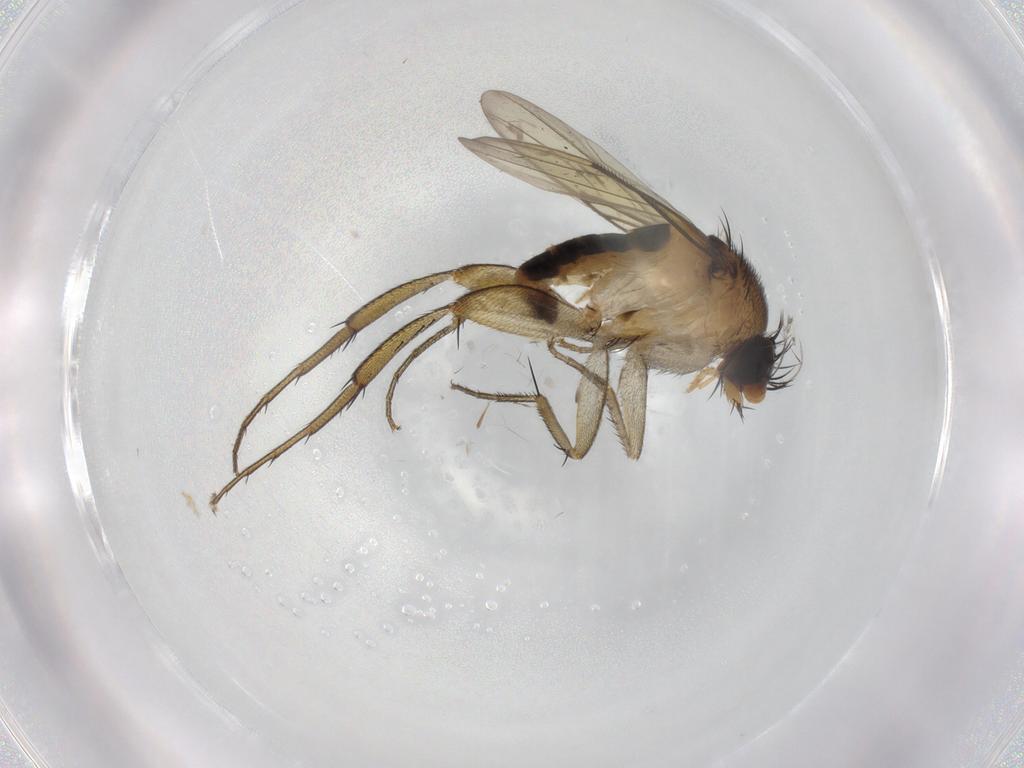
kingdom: Animalia
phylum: Arthropoda
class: Insecta
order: Diptera
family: Phoridae
